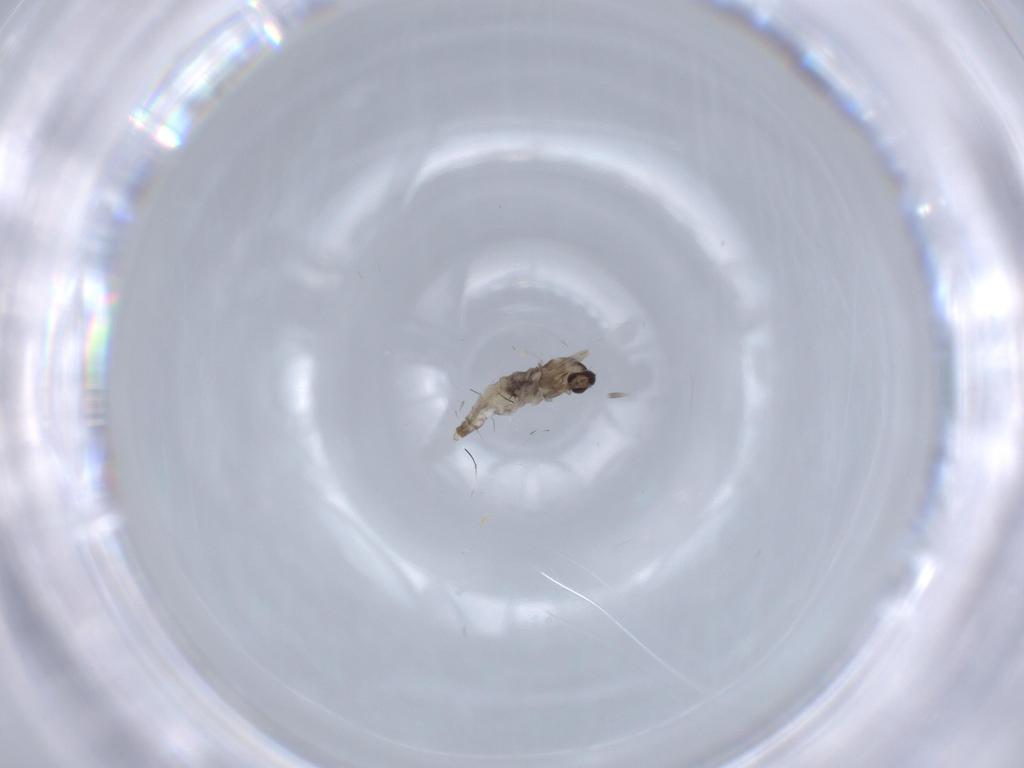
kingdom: Animalia
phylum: Arthropoda
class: Insecta
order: Diptera
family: Cecidomyiidae
